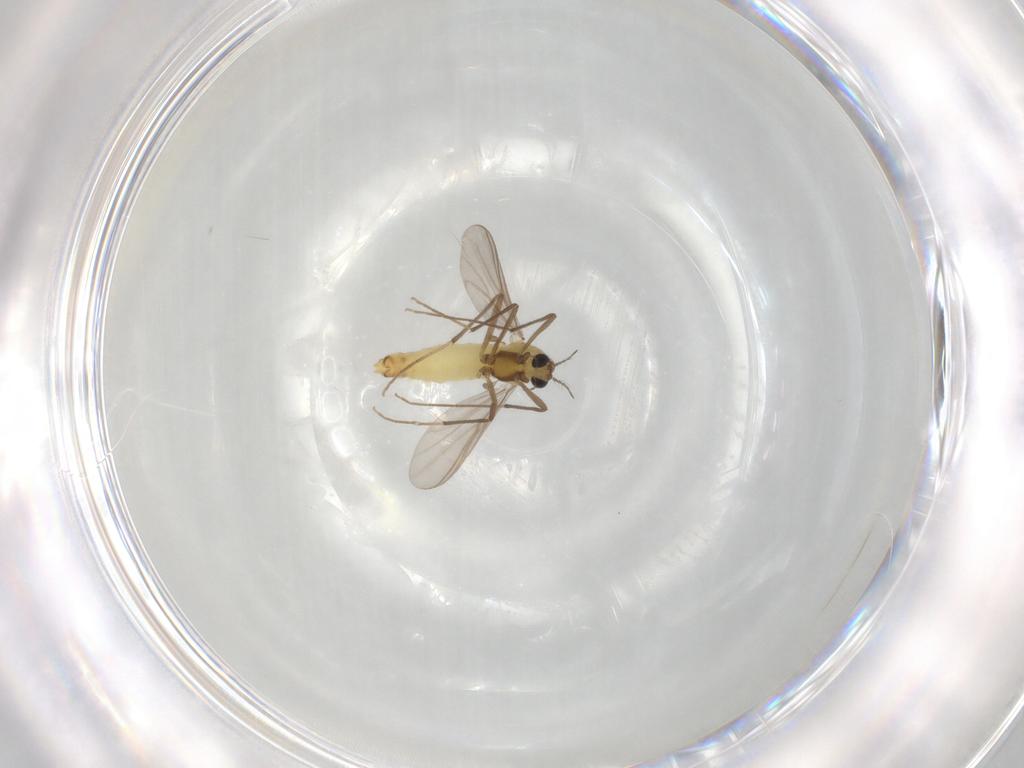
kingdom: Animalia
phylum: Arthropoda
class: Insecta
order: Diptera
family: Chironomidae
